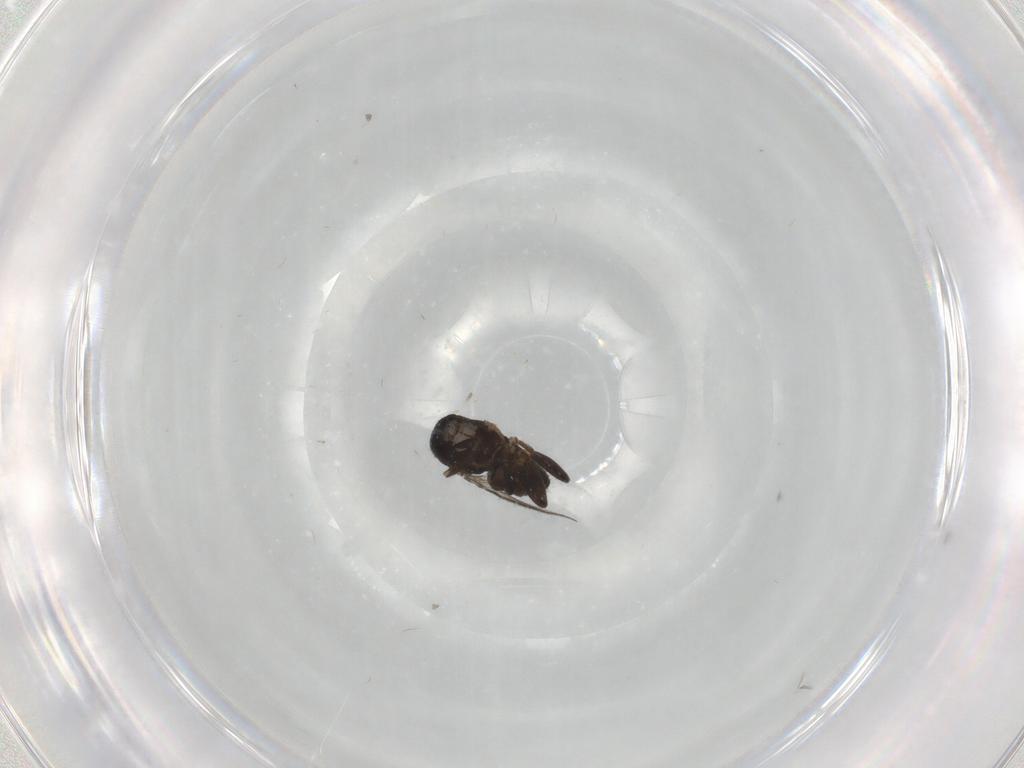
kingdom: Animalia
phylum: Arthropoda
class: Insecta
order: Diptera
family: Sphaeroceridae
